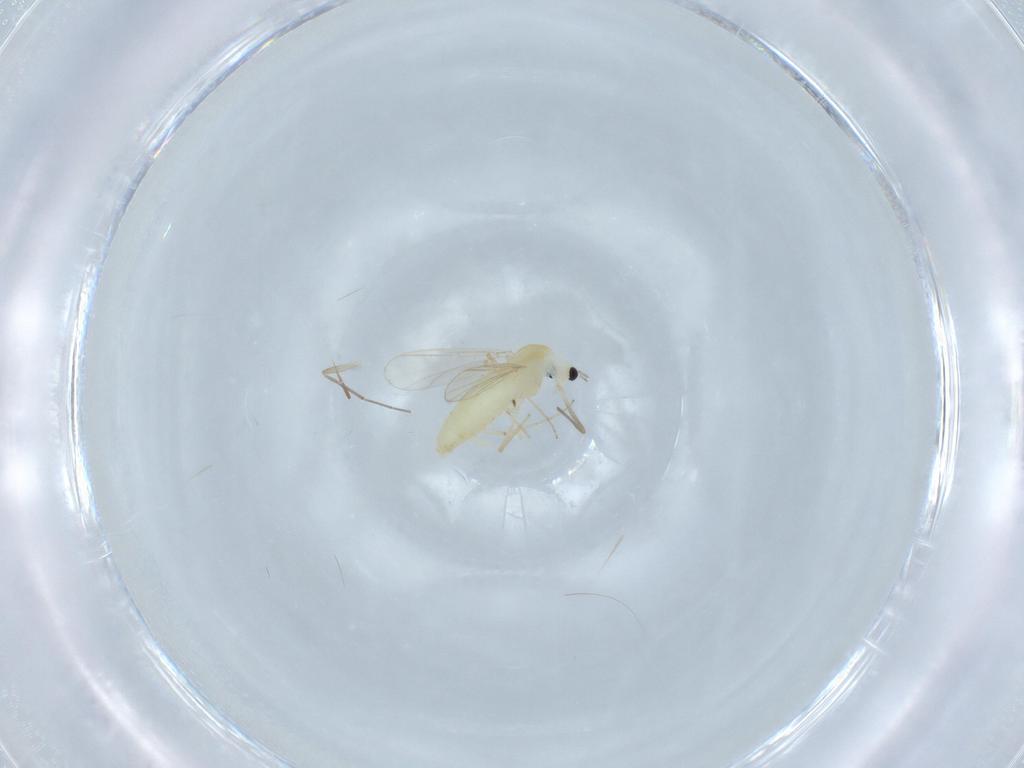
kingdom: Animalia
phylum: Arthropoda
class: Insecta
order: Diptera
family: Chironomidae
